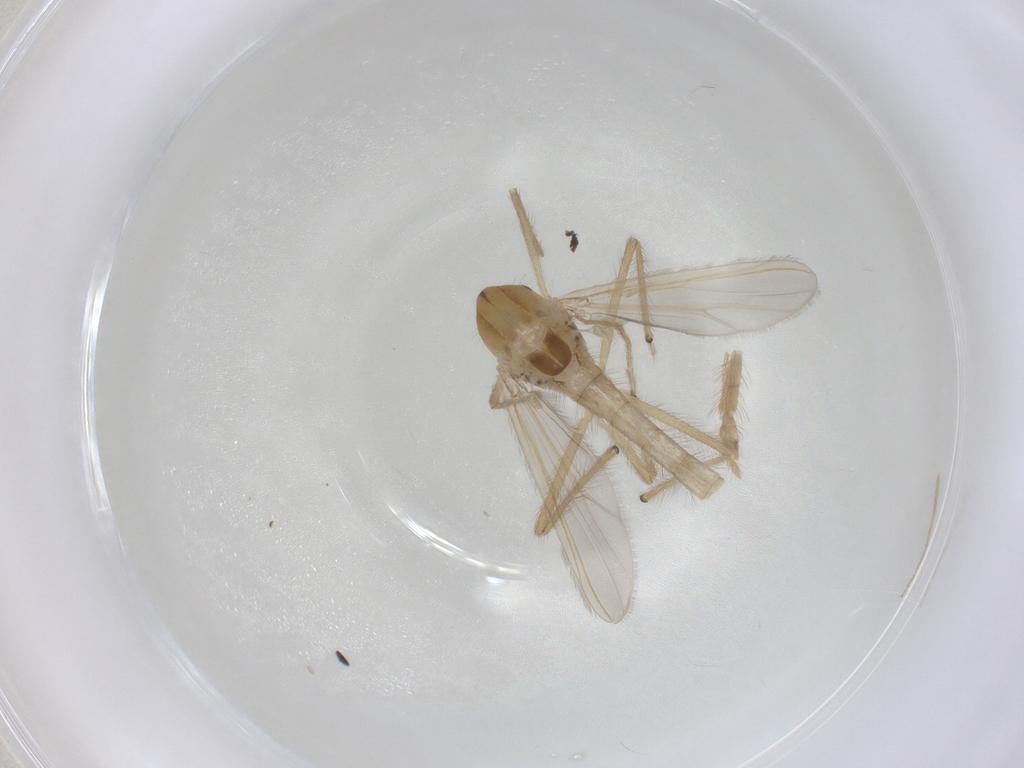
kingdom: Animalia
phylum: Arthropoda
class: Insecta
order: Diptera
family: Chironomidae
